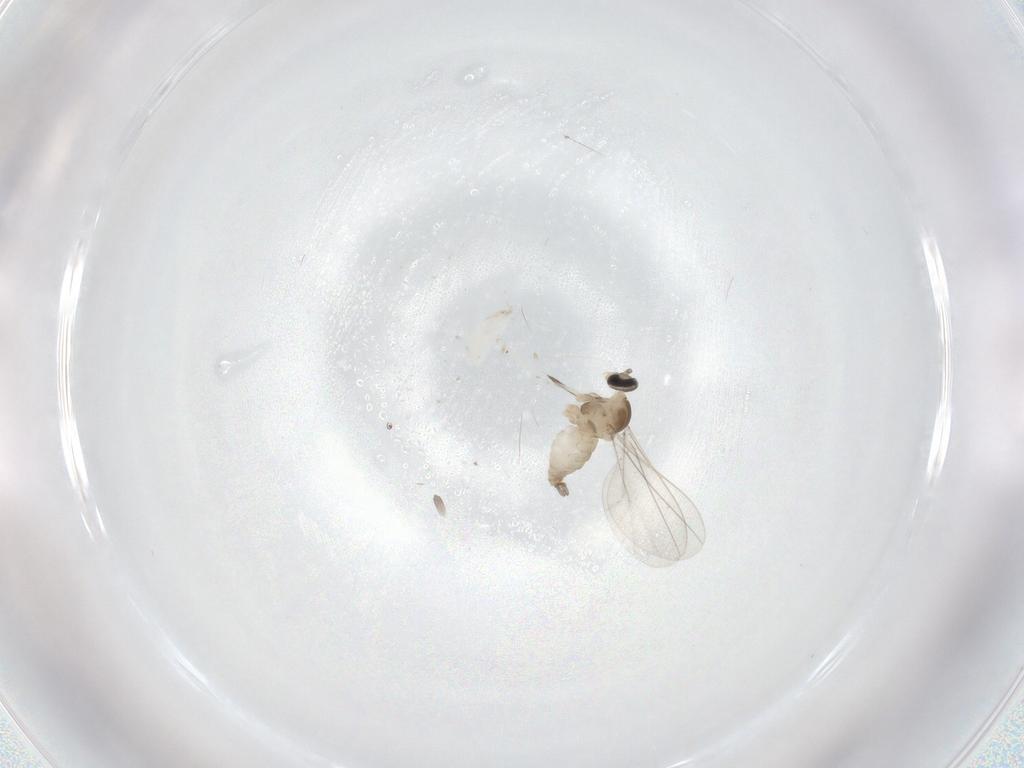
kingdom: Animalia
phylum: Arthropoda
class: Insecta
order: Diptera
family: Cecidomyiidae
